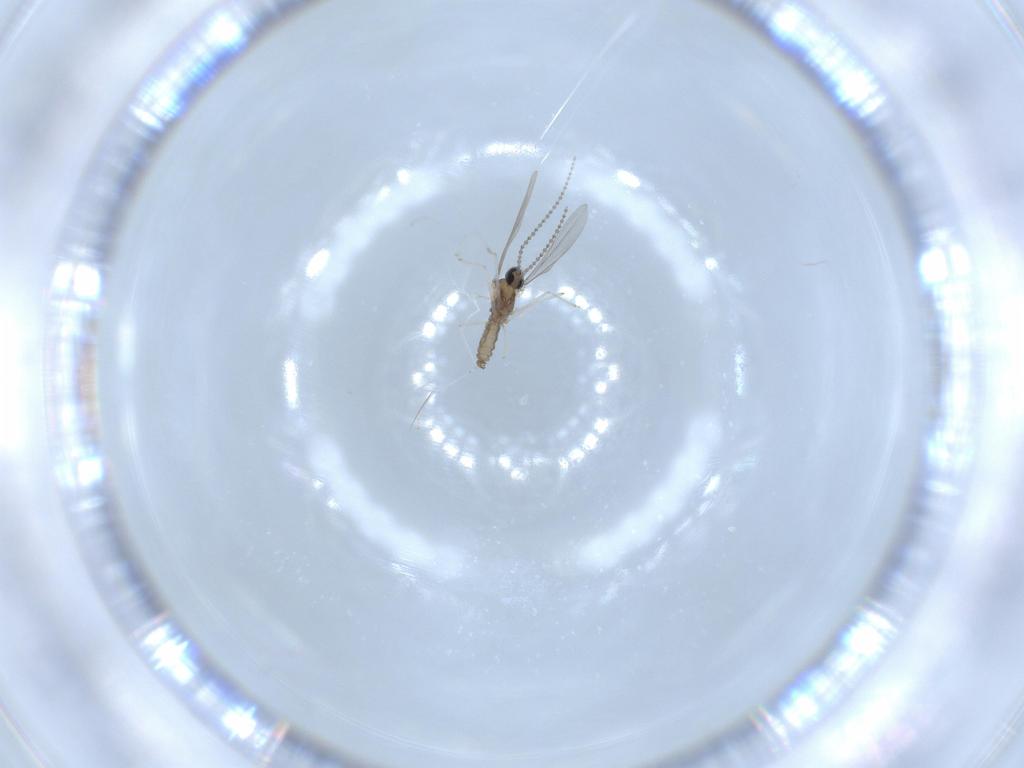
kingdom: Animalia
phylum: Arthropoda
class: Insecta
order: Diptera
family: Cecidomyiidae
